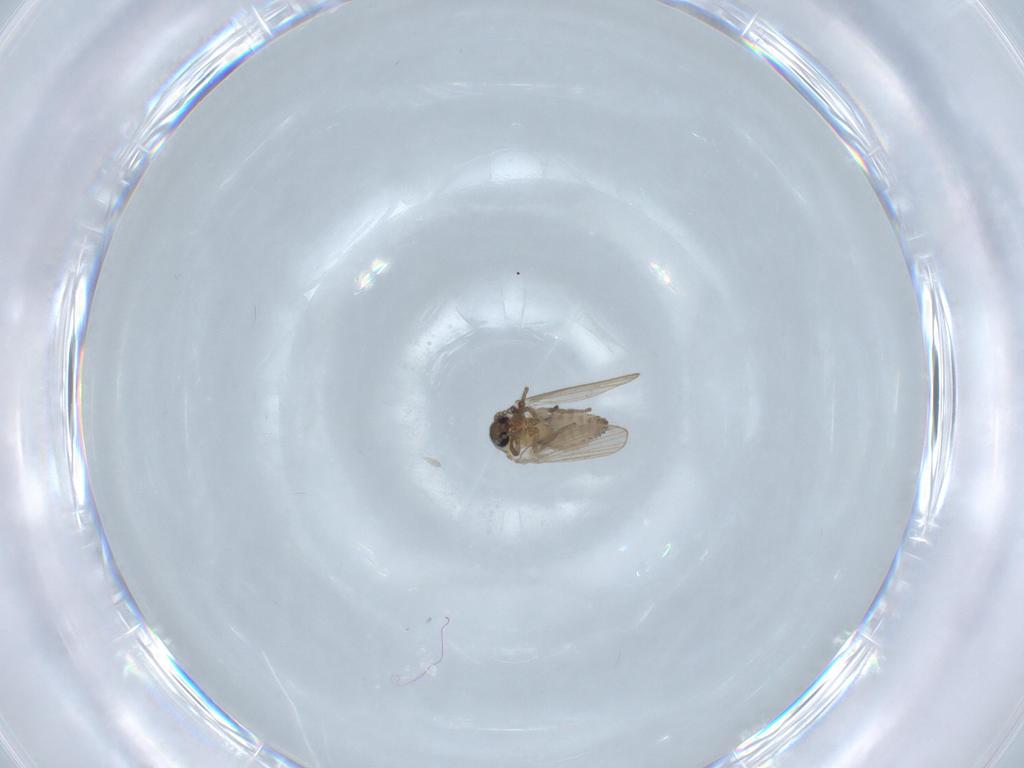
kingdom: Animalia
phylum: Arthropoda
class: Insecta
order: Diptera
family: Psychodidae
